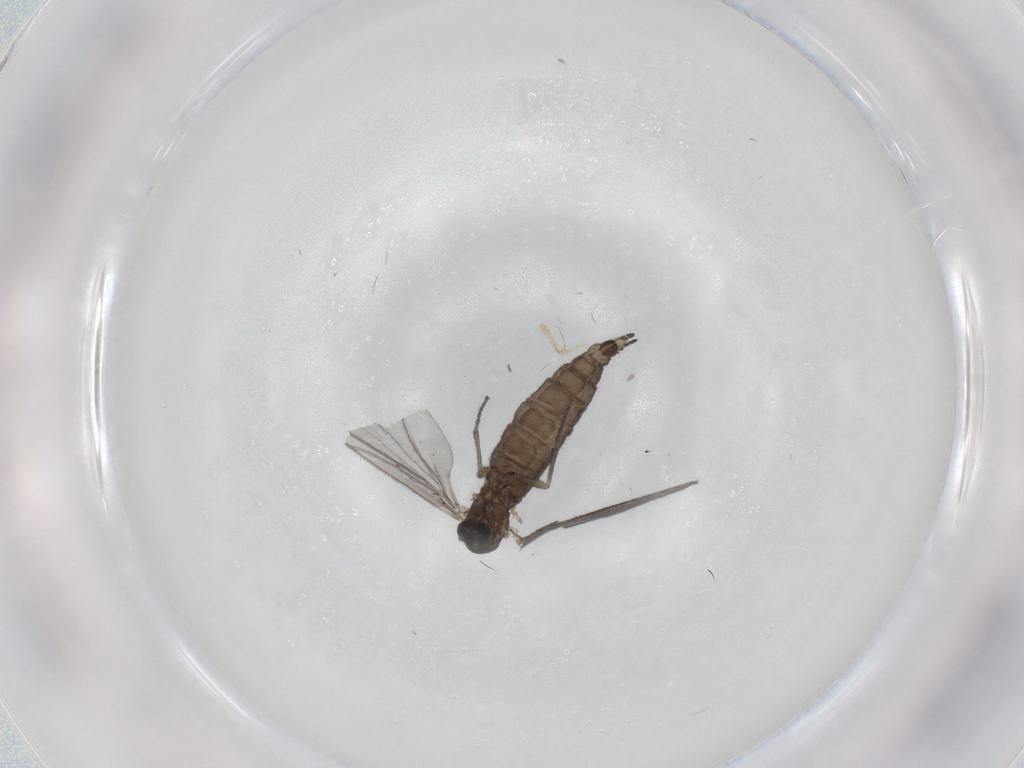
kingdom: Animalia
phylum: Arthropoda
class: Insecta
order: Diptera
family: Sciaridae
